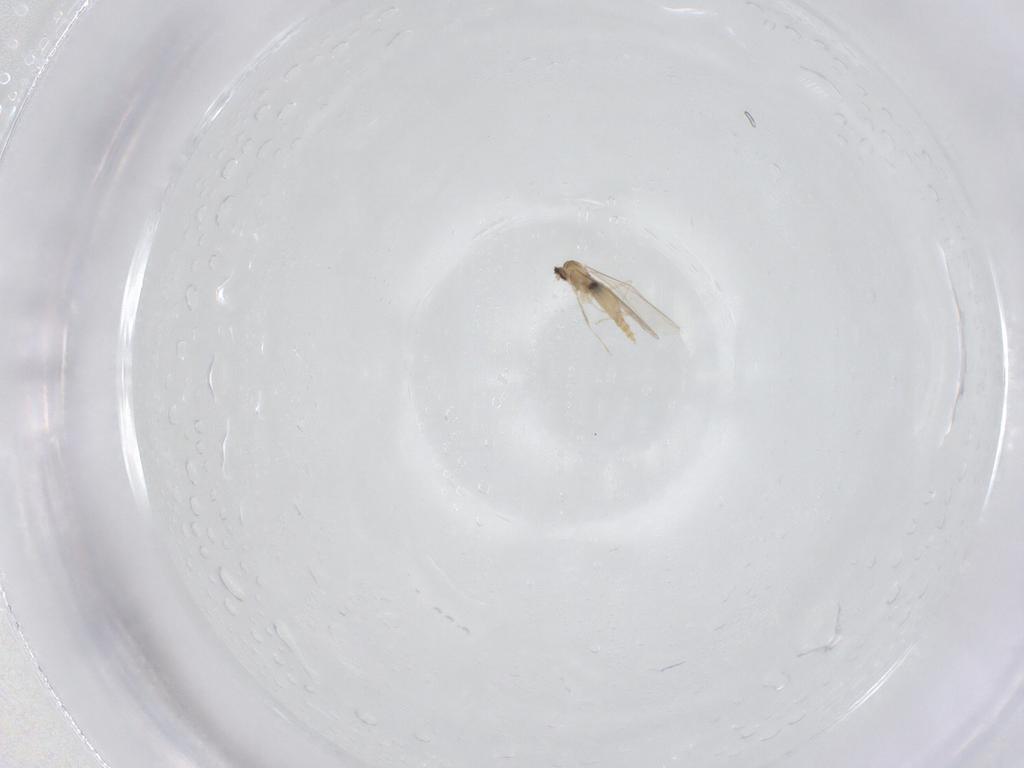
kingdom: Animalia
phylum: Arthropoda
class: Insecta
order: Diptera
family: Cecidomyiidae
